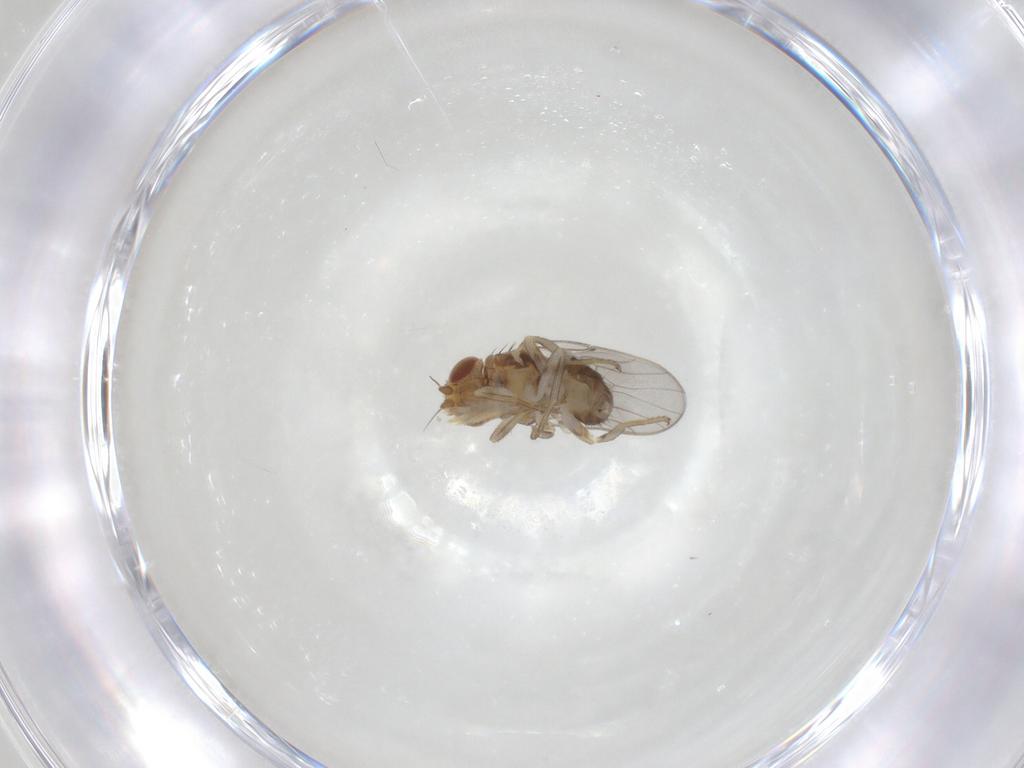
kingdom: Animalia
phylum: Arthropoda
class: Insecta
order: Diptera
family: Chloropidae
